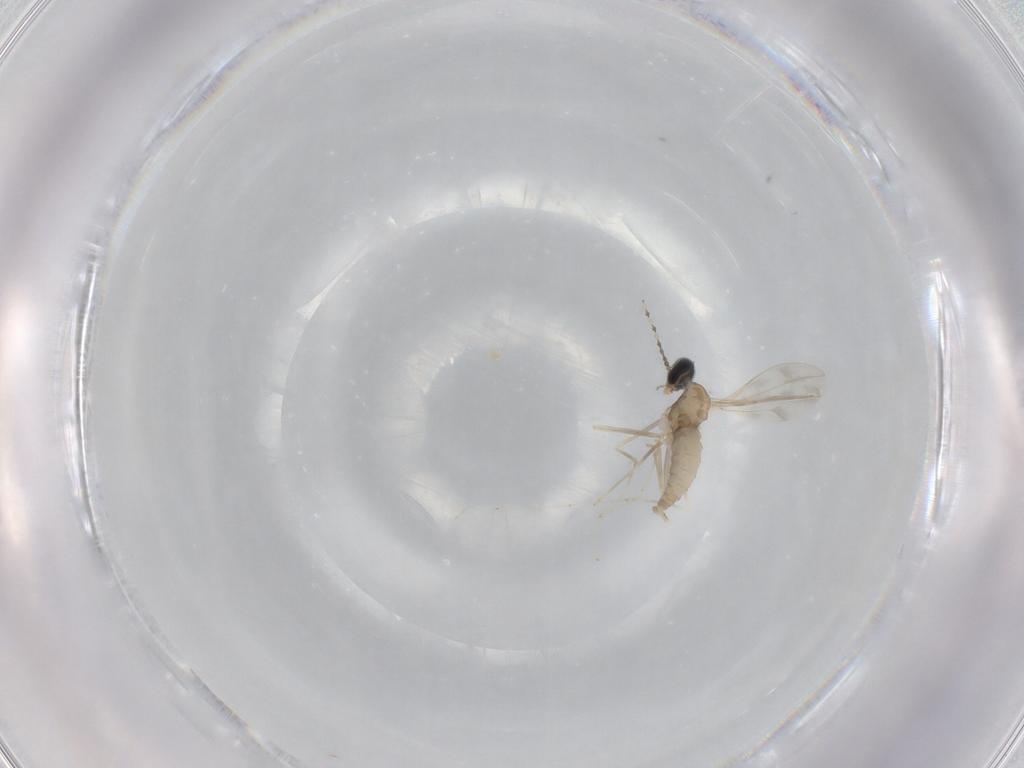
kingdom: Animalia
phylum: Arthropoda
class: Insecta
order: Diptera
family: Cecidomyiidae
